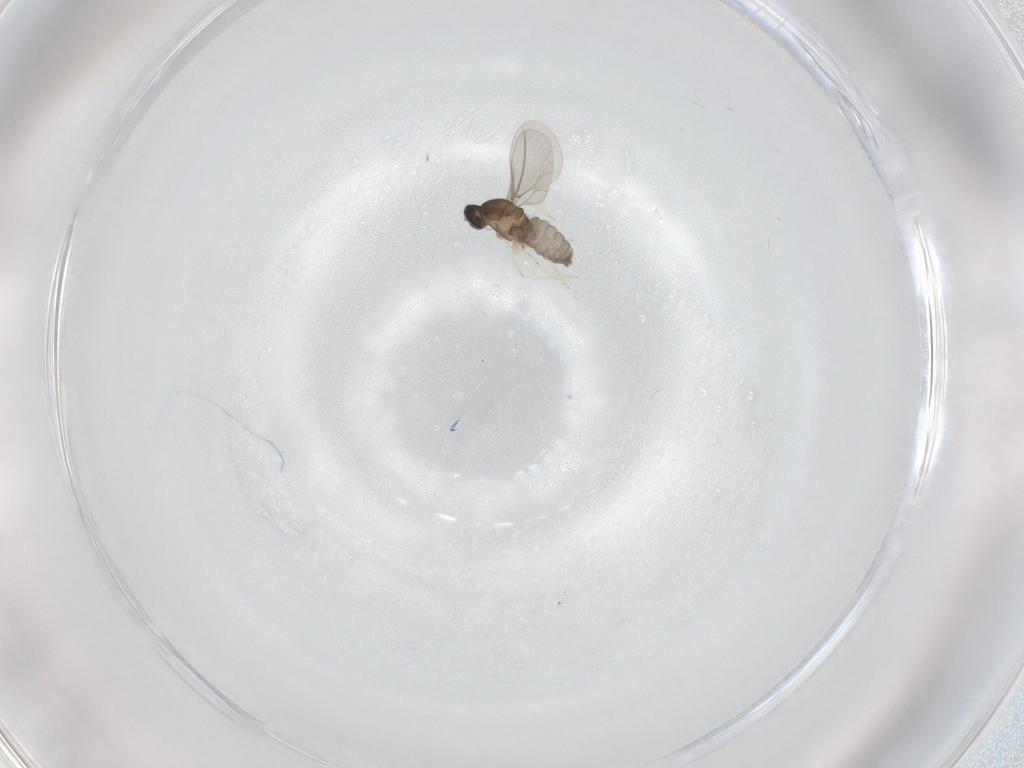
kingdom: Animalia
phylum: Arthropoda
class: Insecta
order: Diptera
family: Cecidomyiidae
